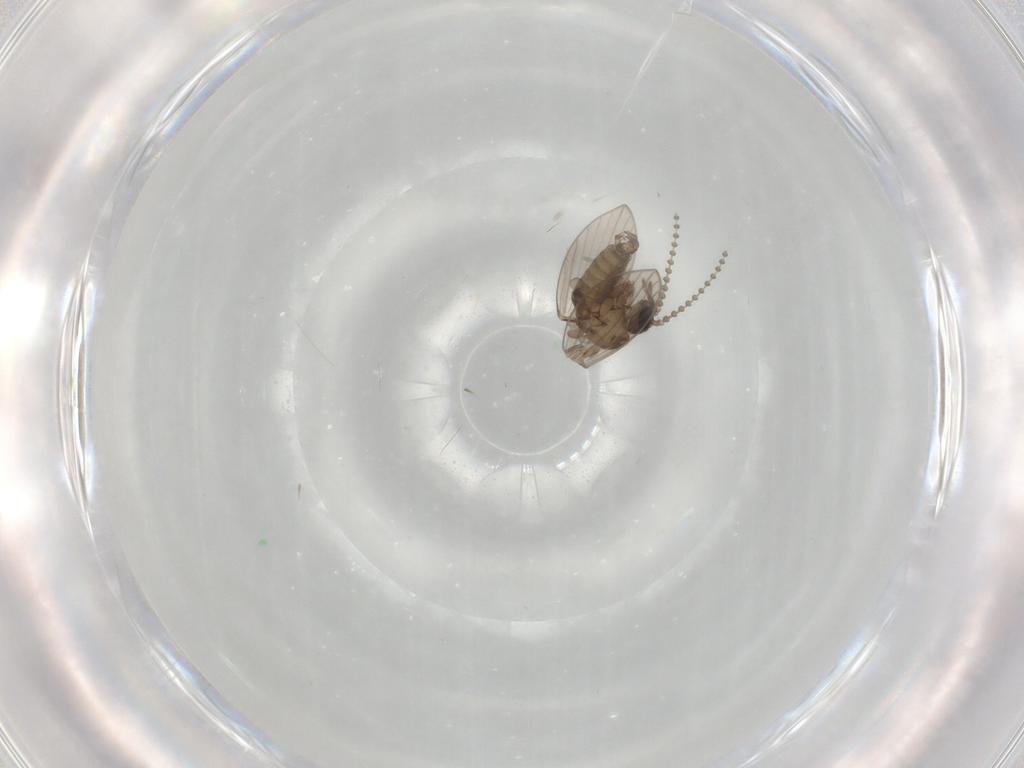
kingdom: Animalia
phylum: Arthropoda
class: Insecta
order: Diptera
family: Psychodidae
